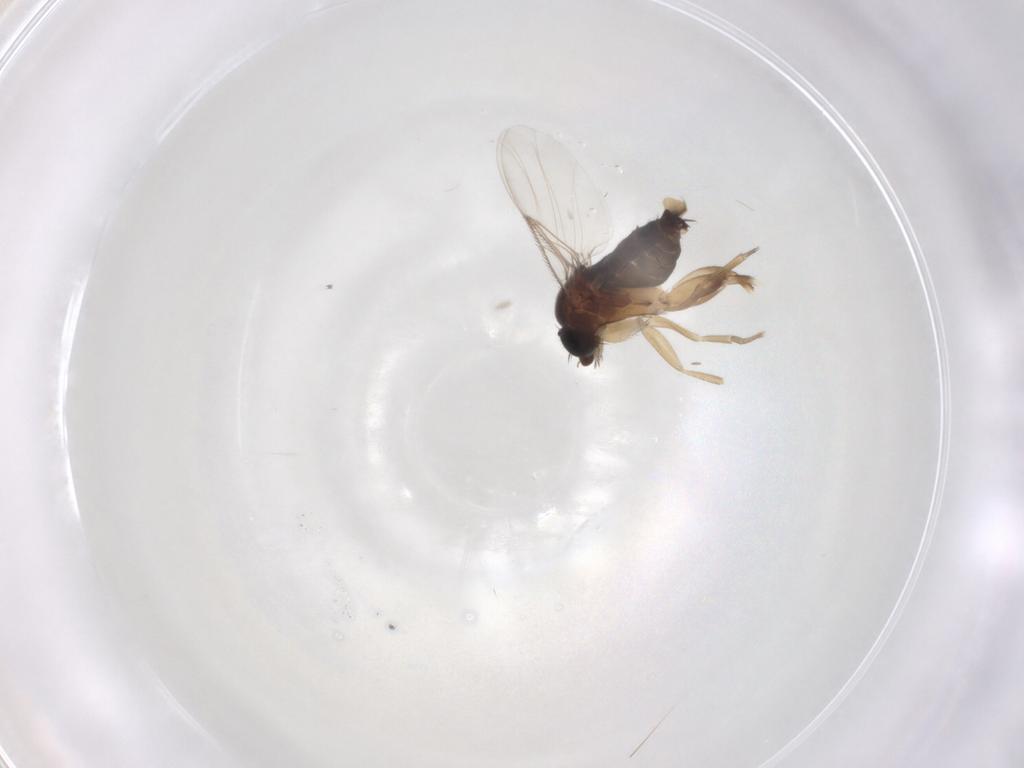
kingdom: Animalia
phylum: Arthropoda
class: Insecta
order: Diptera
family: Phoridae
